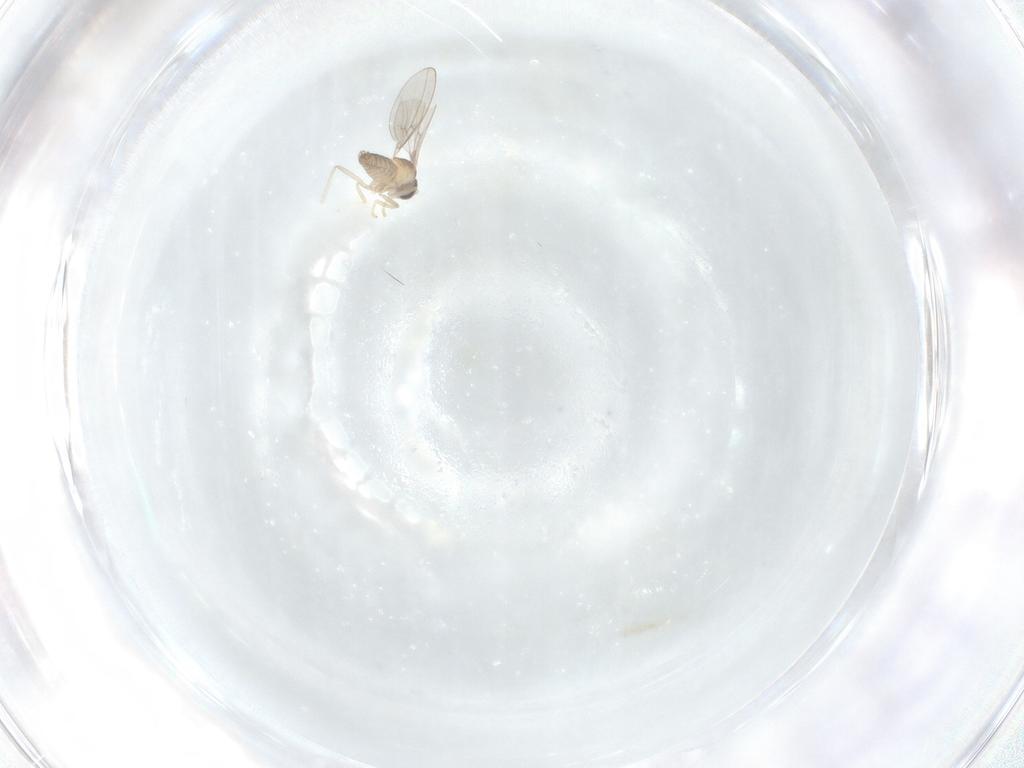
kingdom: Animalia
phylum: Arthropoda
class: Insecta
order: Diptera
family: Cecidomyiidae
